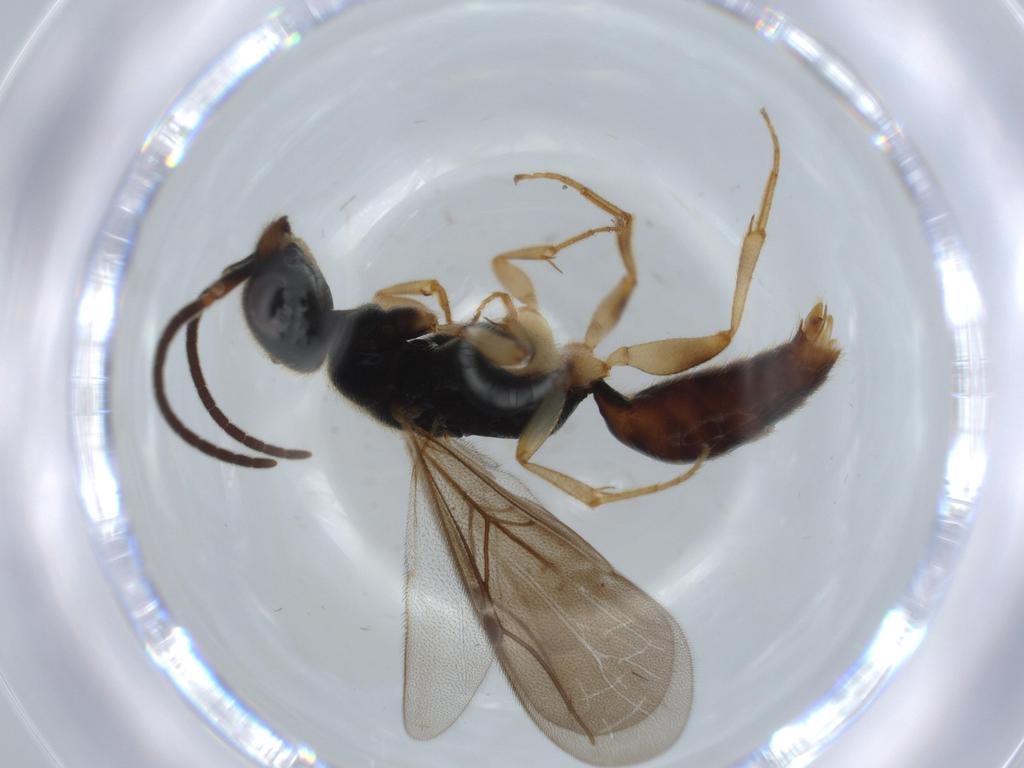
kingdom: Animalia
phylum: Arthropoda
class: Insecta
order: Hymenoptera
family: Bethylidae
